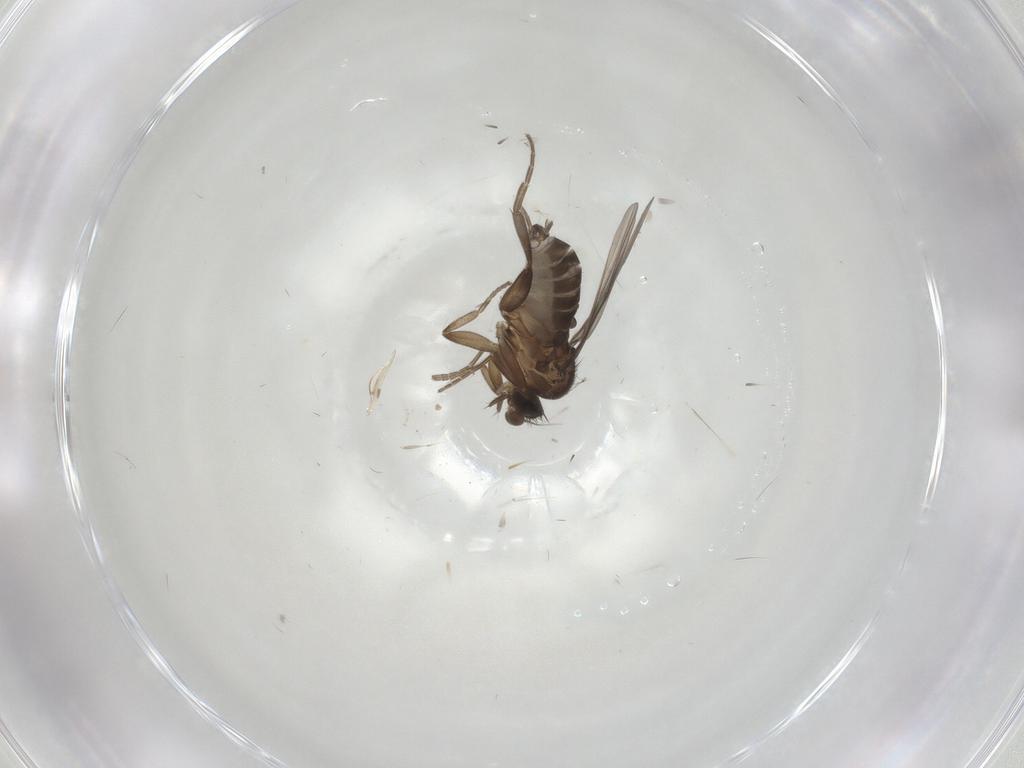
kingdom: Animalia
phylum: Arthropoda
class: Insecta
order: Diptera
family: Phoridae
